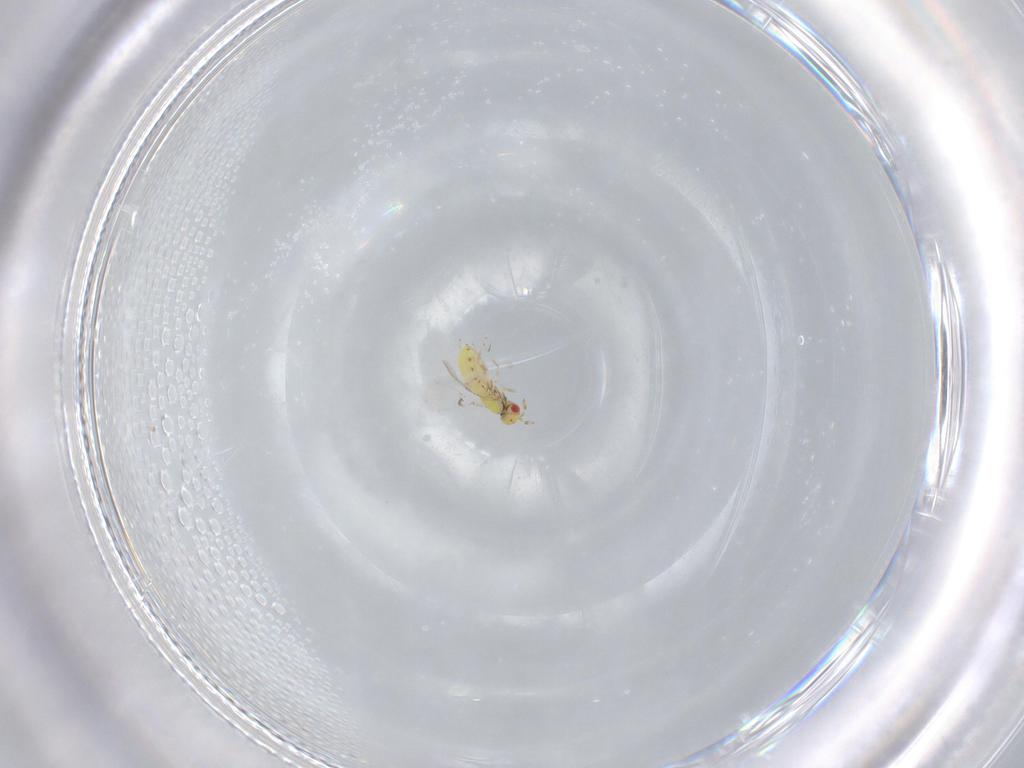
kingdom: Animalia
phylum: Arthropoda
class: Insecta
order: Hymenoptera
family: Trichogrammatidae
